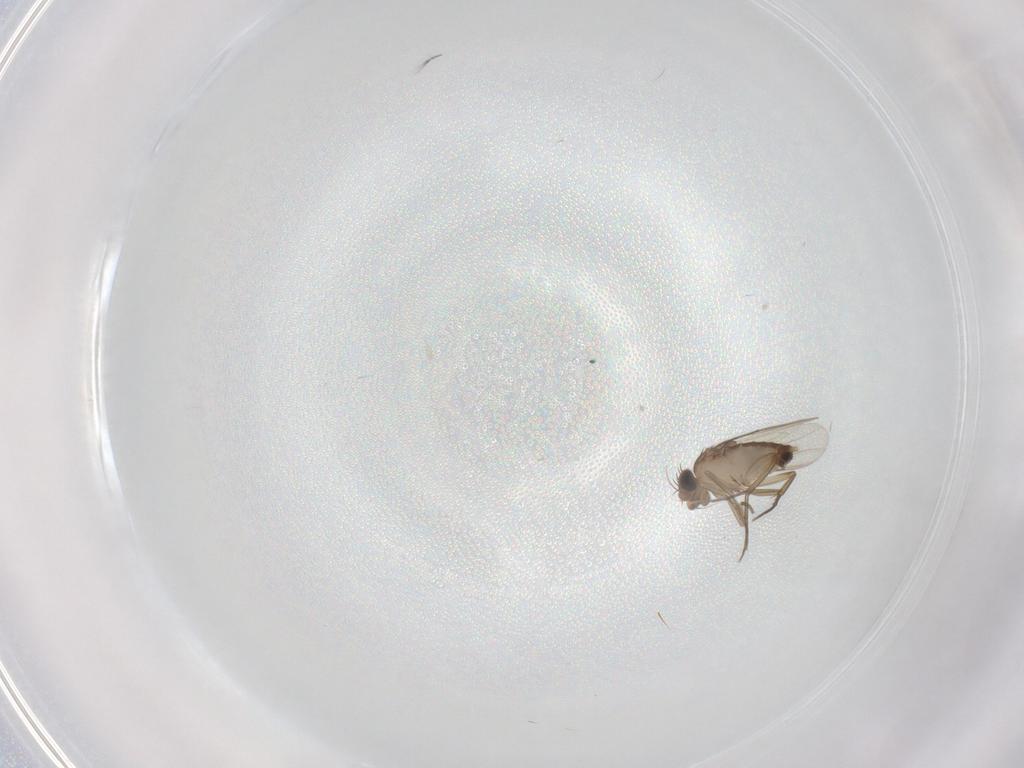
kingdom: Animalia
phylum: Arthropoda
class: Insecta
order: Diptera
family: Phoridae
